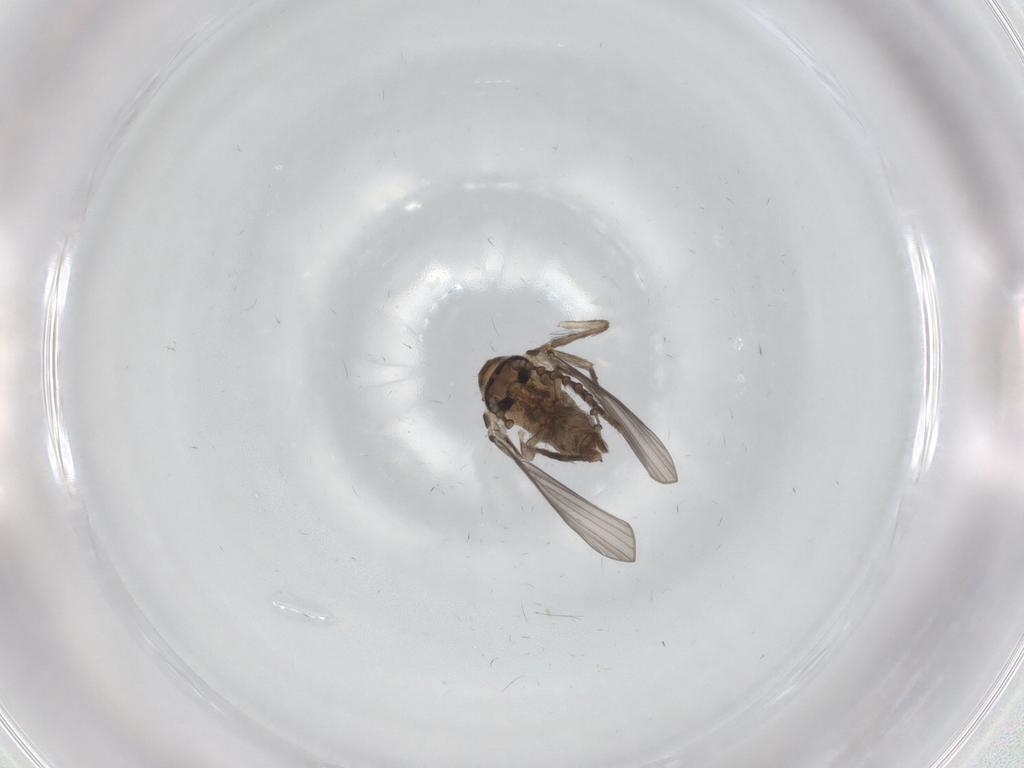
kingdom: Animalia
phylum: Arthropoda
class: Insecta
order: Diptera
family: Psychodidae
